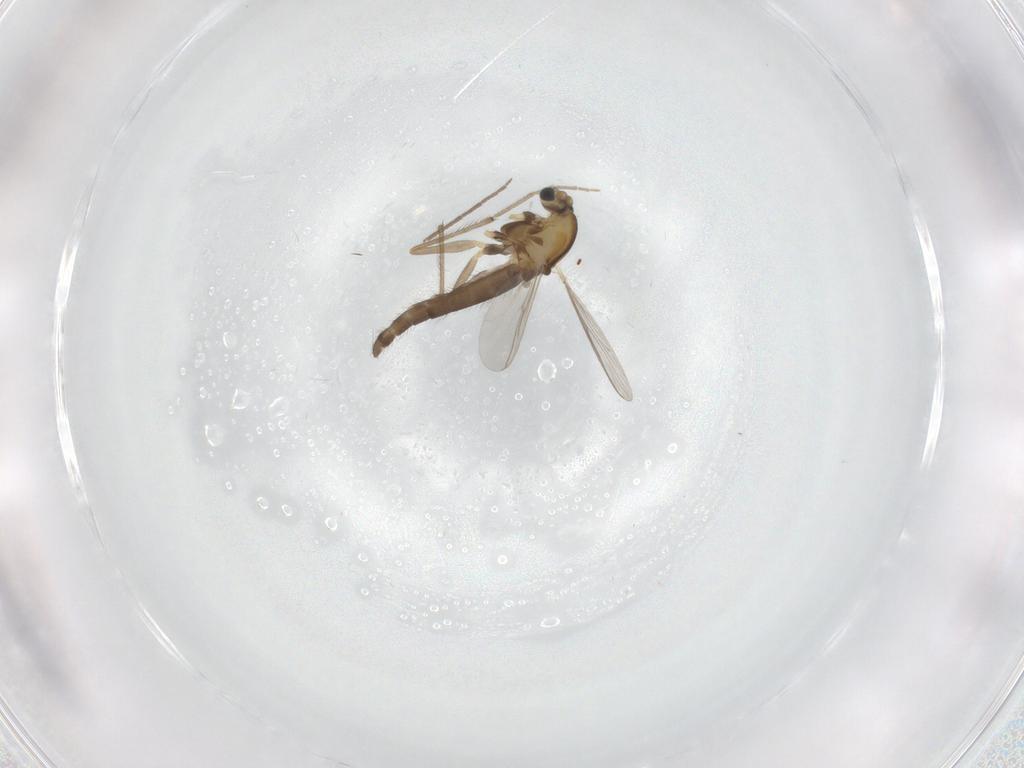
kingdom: Animalia
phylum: Arthropoda
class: Insecta
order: Diptera
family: Chironomidae
